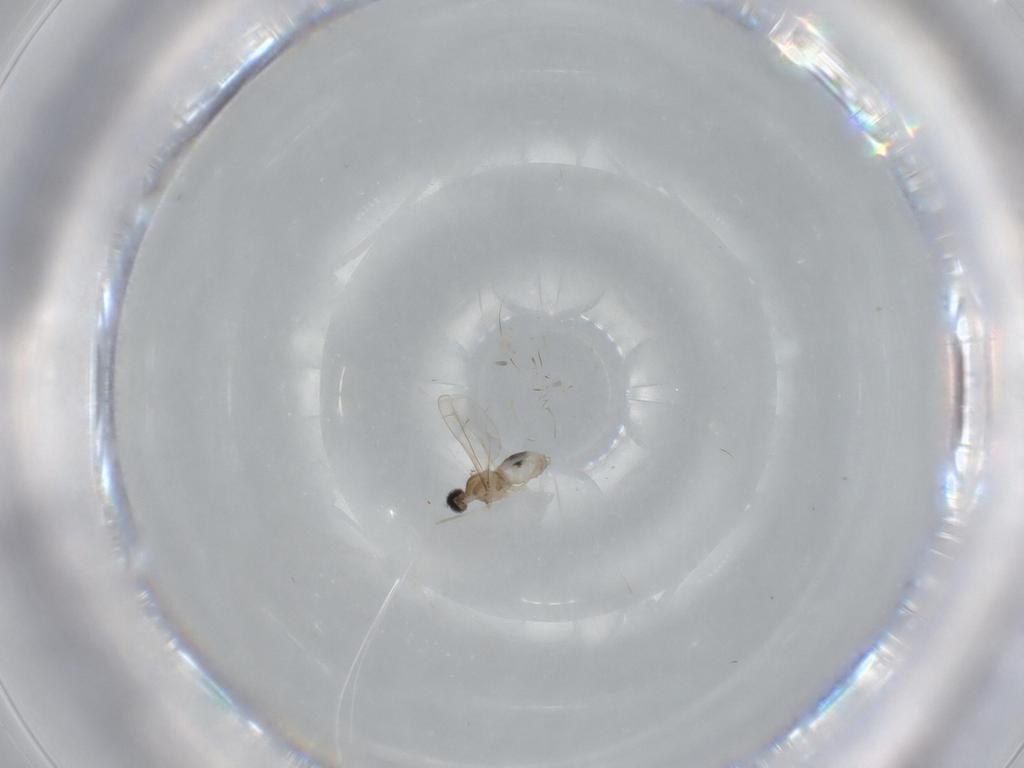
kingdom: Animalia
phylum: Arthropoda
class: Insecta
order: Diptera
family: Cecidomyiidae
